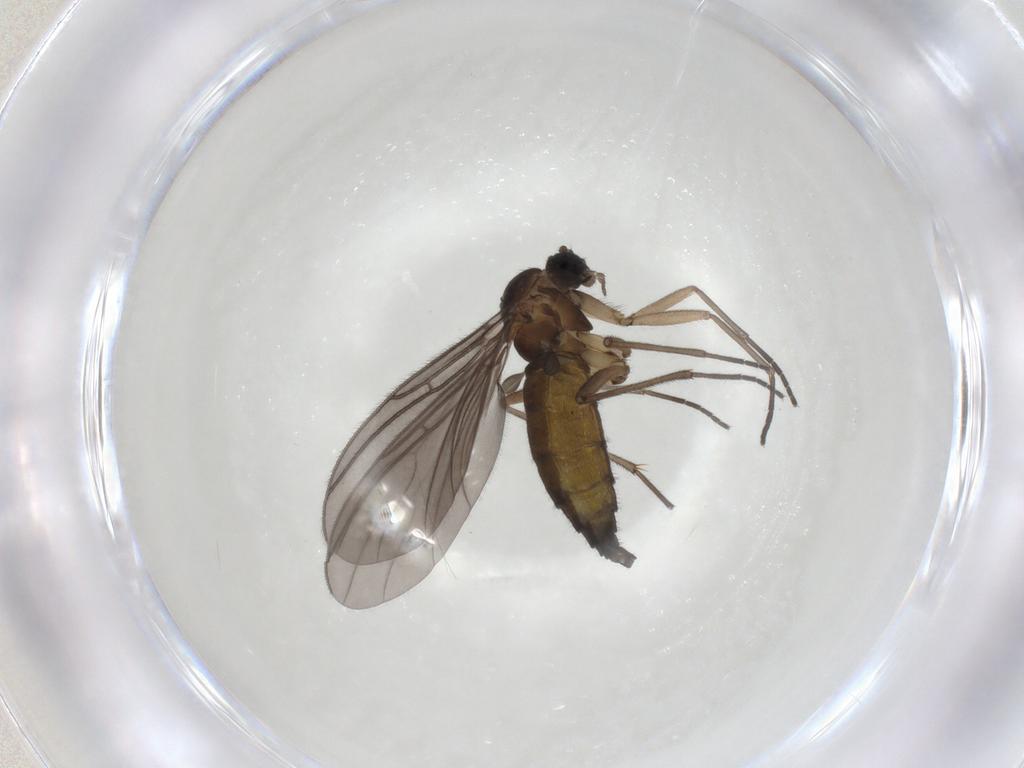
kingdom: Animalia
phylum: Arthropoda
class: Insecta
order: Diptera
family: Sciaridae
